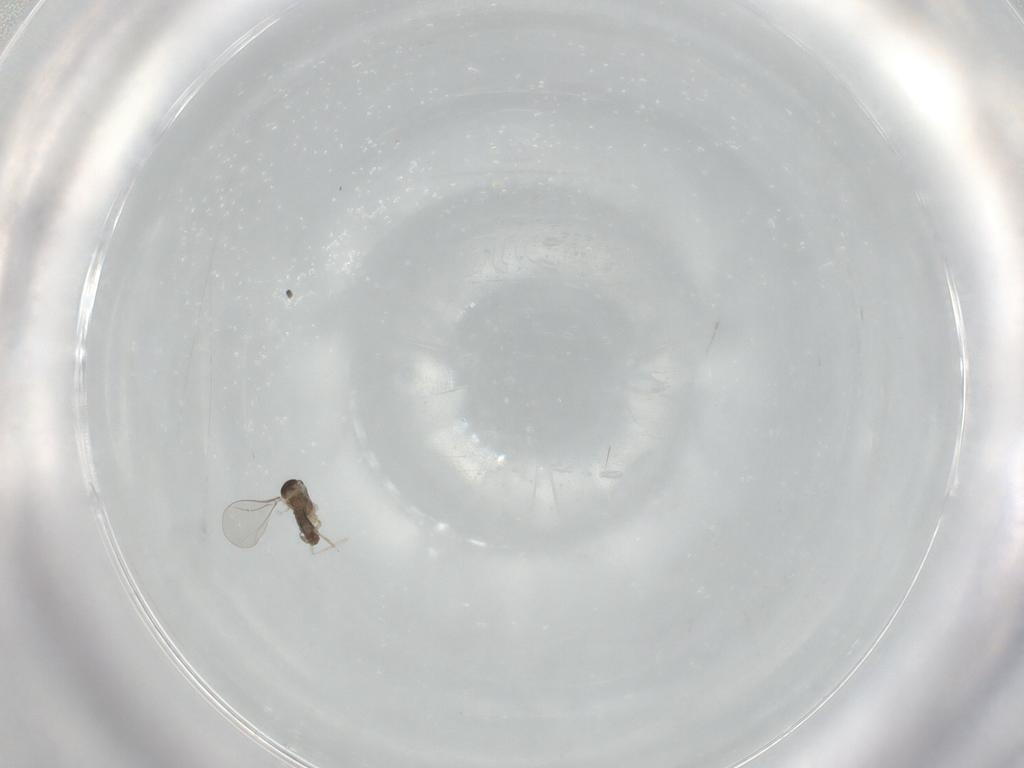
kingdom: Animalia
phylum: Arthropoda
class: Insecta
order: Diptera
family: Cecidomyiidae
